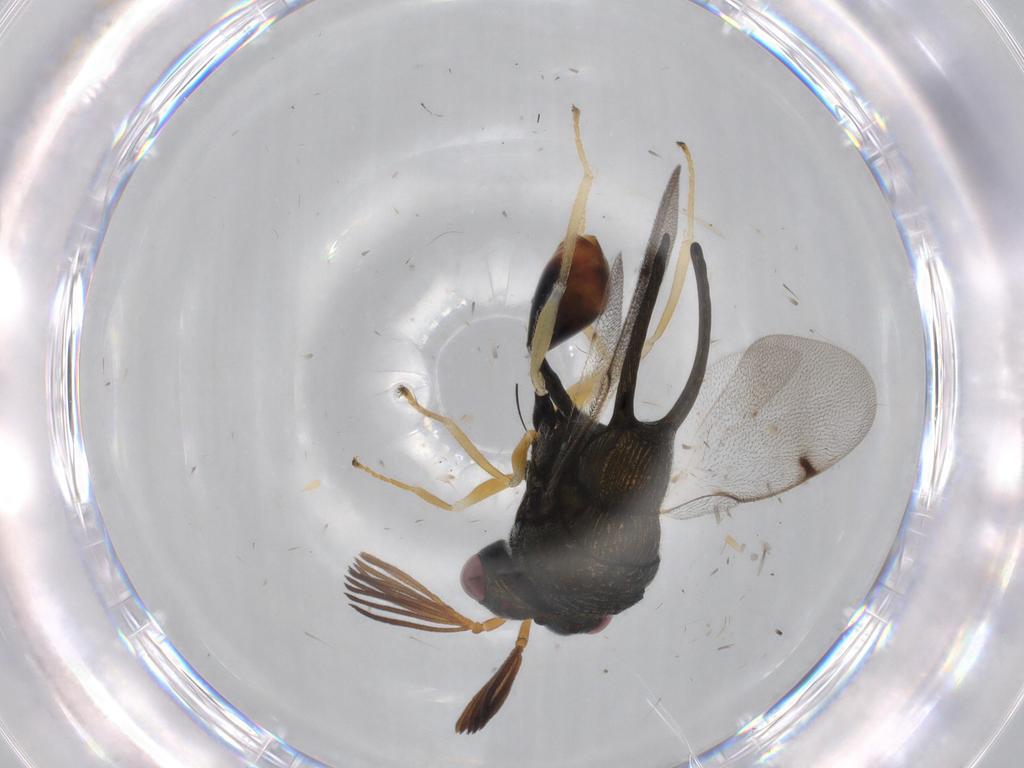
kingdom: Animalia
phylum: Arthropoda
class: Insecta
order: Hymenoptera
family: Eucharitidae
